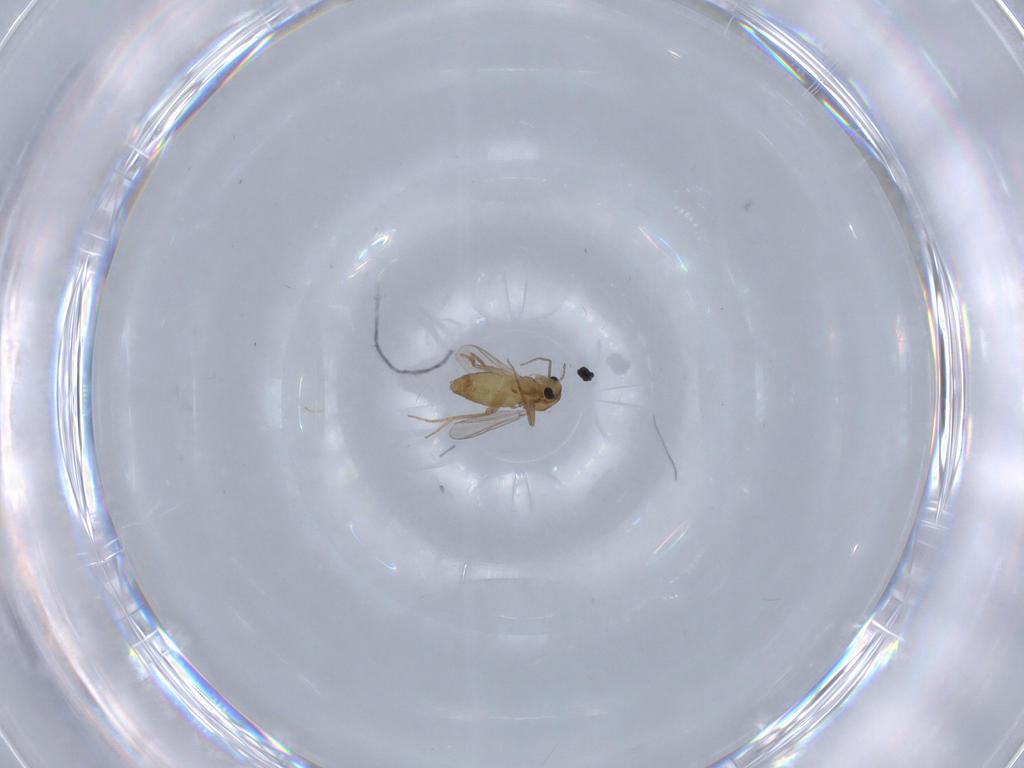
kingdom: Animalia
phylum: Arthropoda
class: Insecta
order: Diptera
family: Chironomidae
